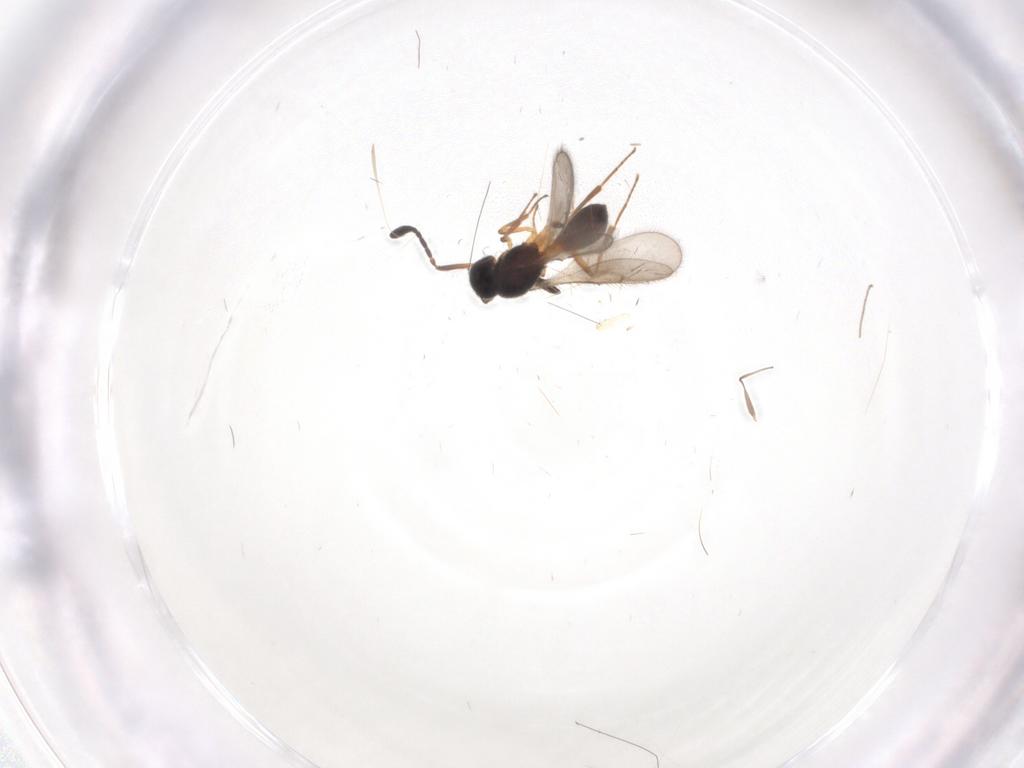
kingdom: Animalia
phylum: Arthropoda
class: Insecta
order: Hymenoptera
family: Scelionidae
